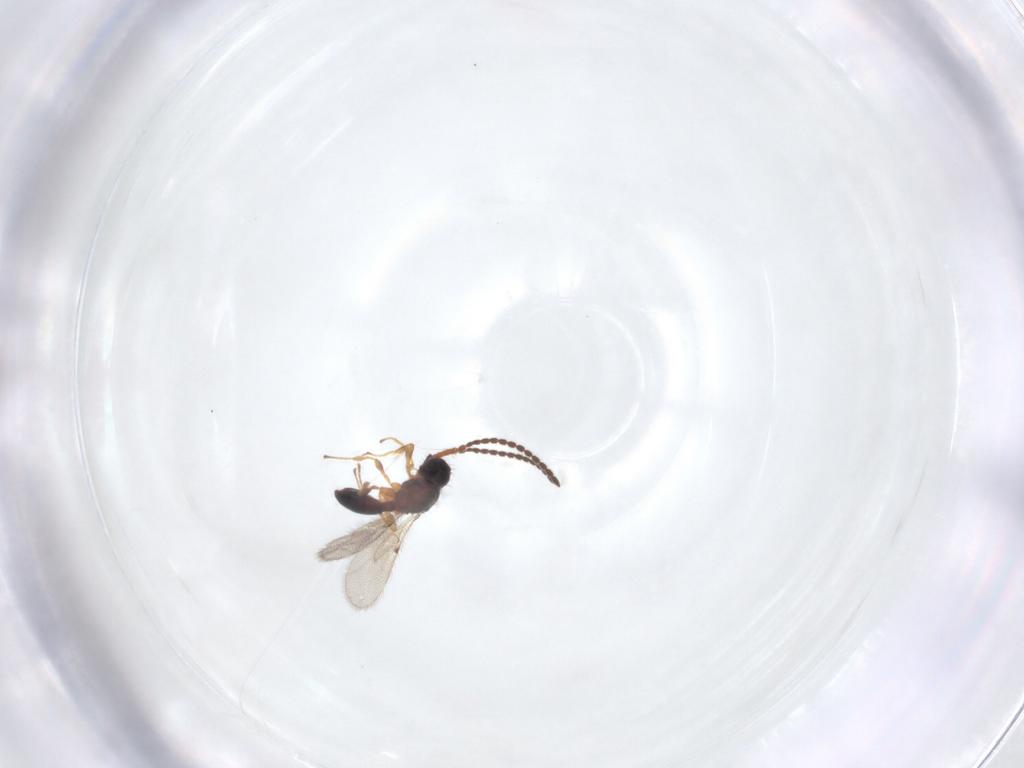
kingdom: Animalia
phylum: Arthropoda
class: Insecta
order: Hymenoptera
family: Diapriidae
